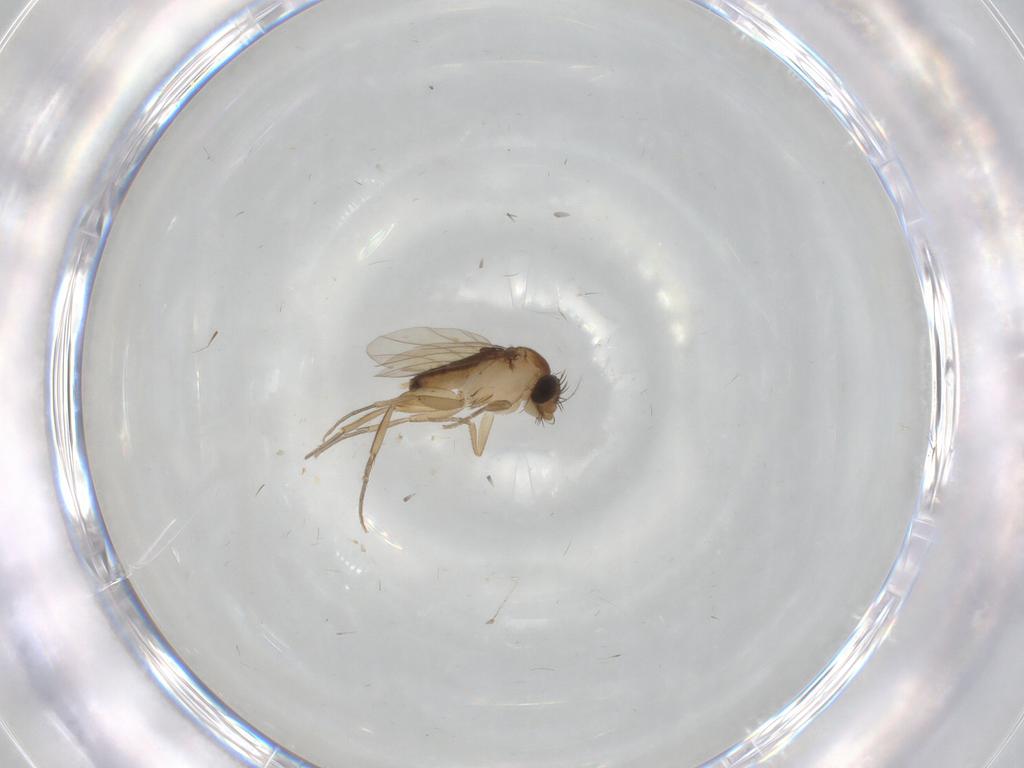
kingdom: Animalia
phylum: Arthropoda
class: Insecta
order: Diptera
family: Phoridae
